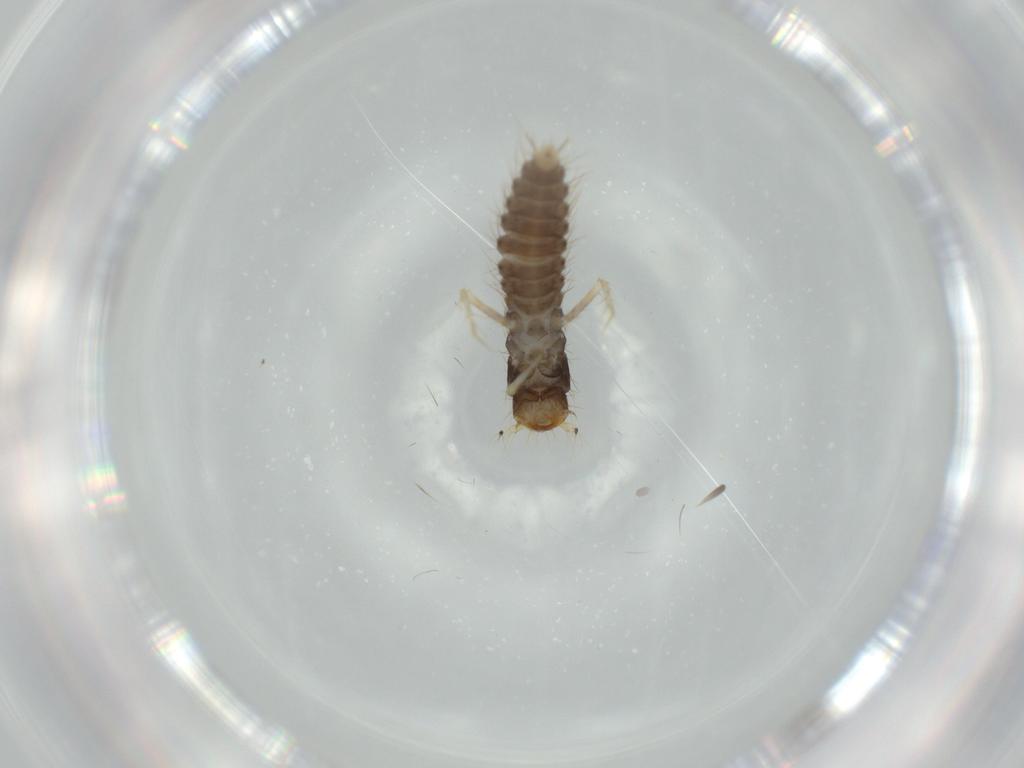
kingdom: Animalia
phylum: Arthropoda
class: Insecta
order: Coleoptera
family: Staphylinidae
